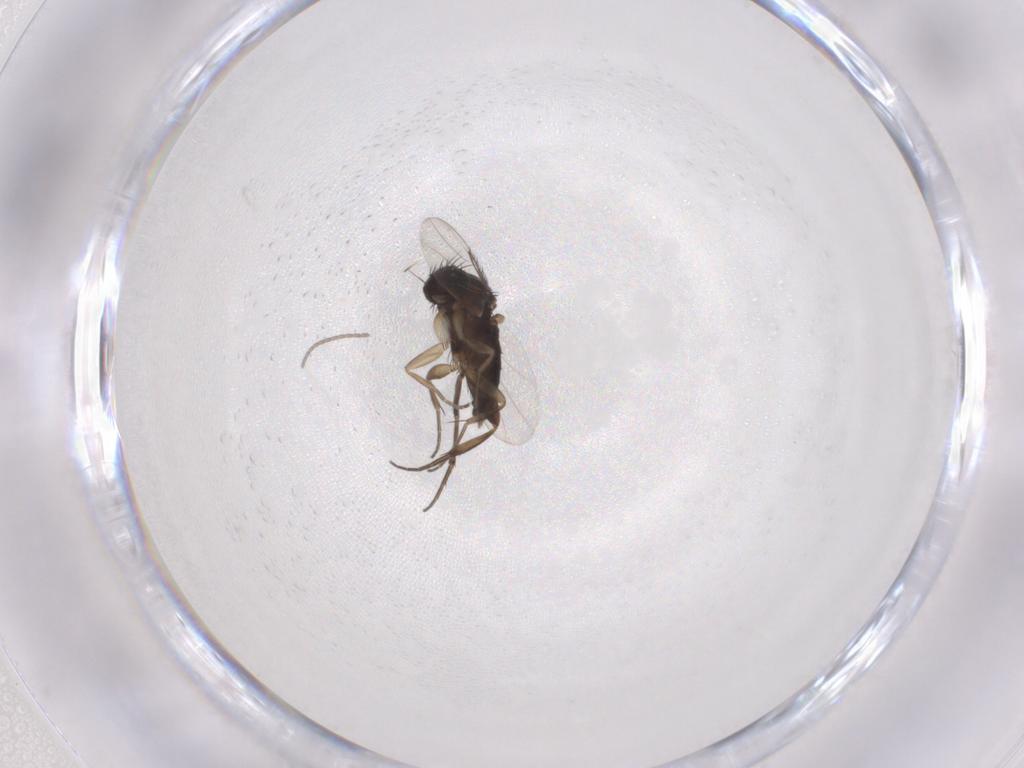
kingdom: Animalia
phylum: Arthropoda
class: Insecta
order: Diptera
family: Phoridae
